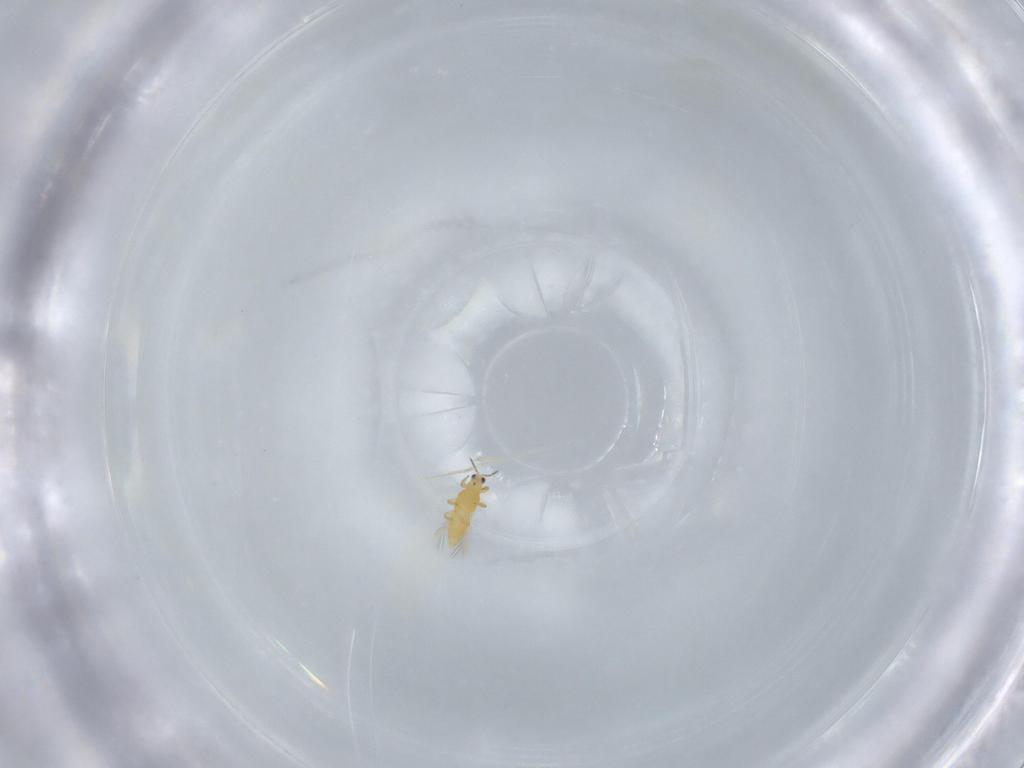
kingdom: Animalia
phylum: Arthropoda
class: Insecta
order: Thysanoptera
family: Thripidae
